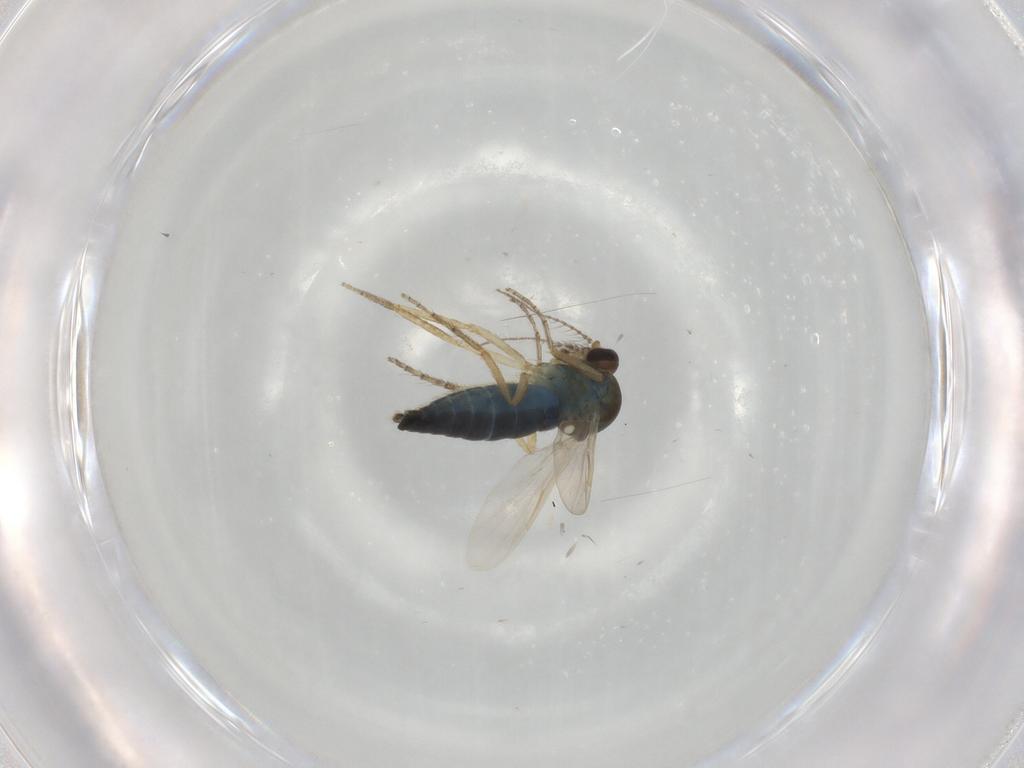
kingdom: Animalia
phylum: Arthropoda
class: Insecta
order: Diptera
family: Ceratopogonidae
